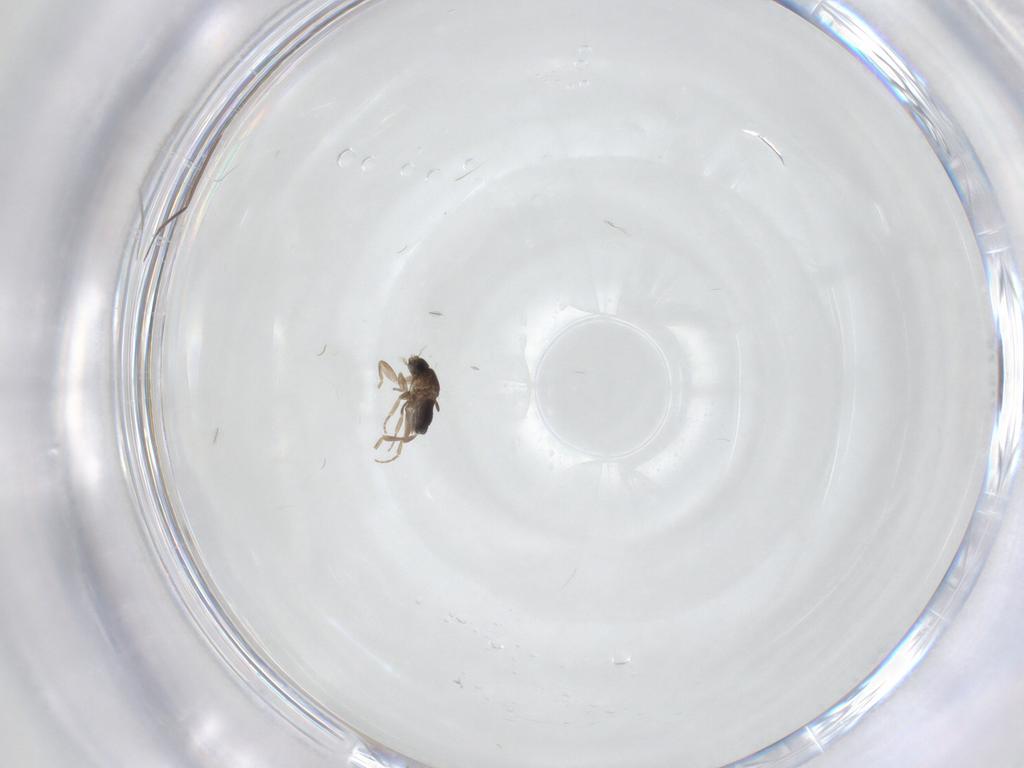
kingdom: Animalia
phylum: Arthropoda
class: Insecta
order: Diptera
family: Phoridae
